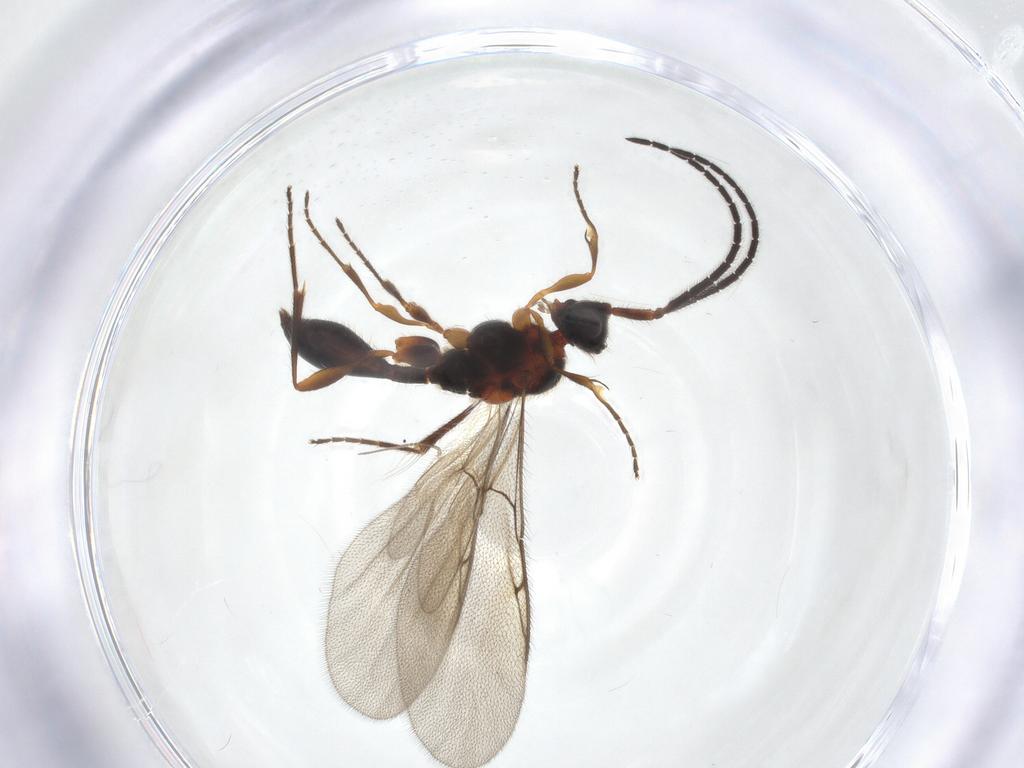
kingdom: Animalia
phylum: Arthropoda
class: Insecta
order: Hymenoptera
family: Diapriidae
